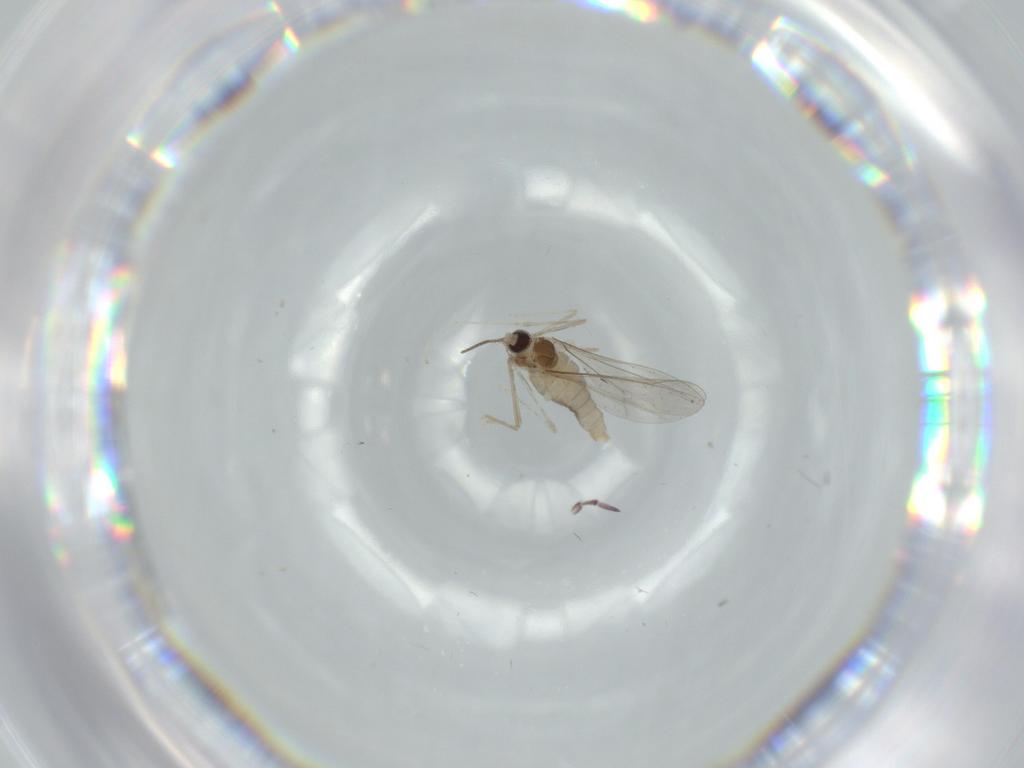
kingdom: Animalia
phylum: Arthropoda
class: Insecta
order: Diptera
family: Cecidomyiidae
